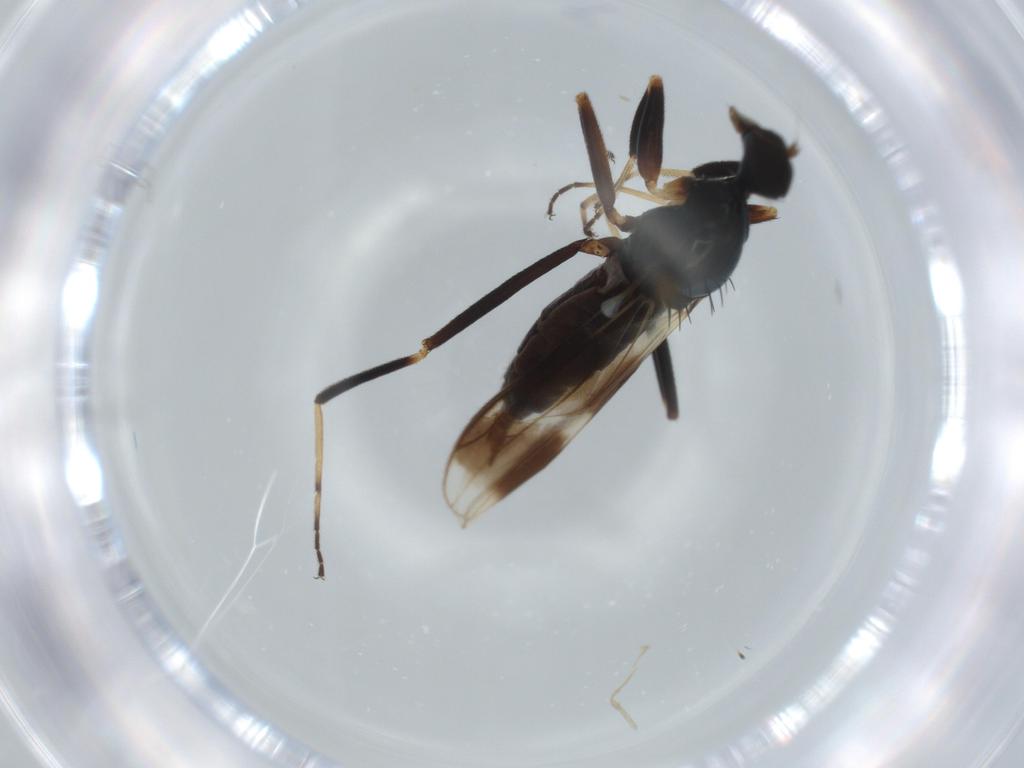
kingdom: Animalia
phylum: Arthropoda
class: Insecta
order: Diptera
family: Hybotidae
